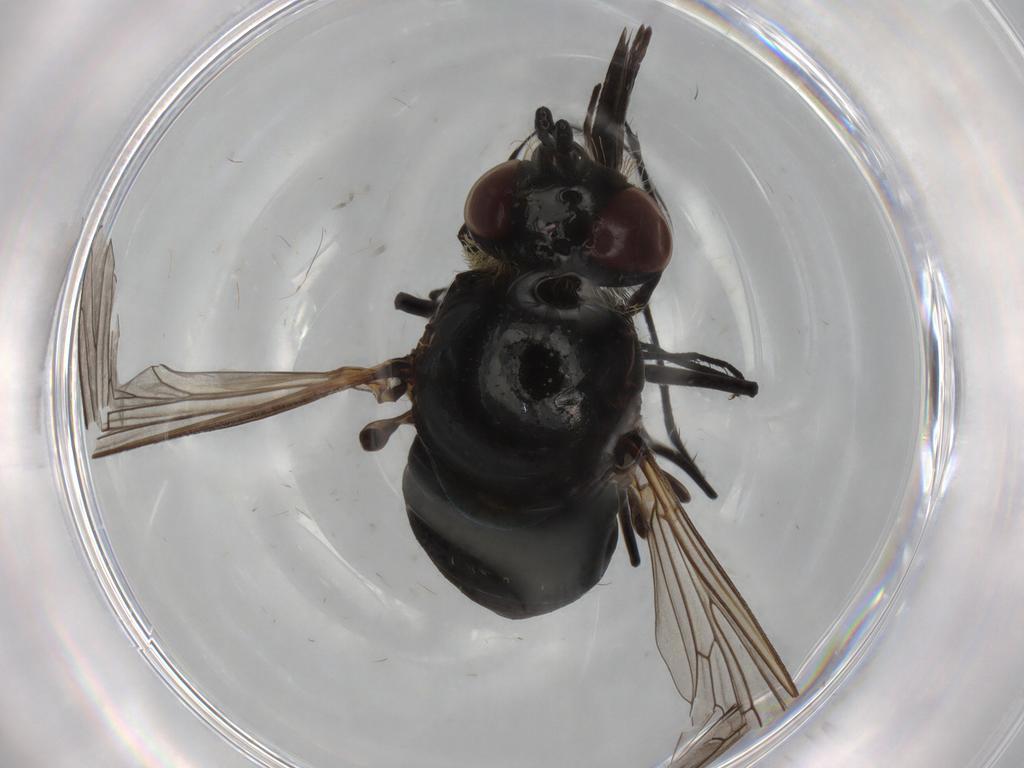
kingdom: Animalia
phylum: Arthropoda
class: Insecta
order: Diptera
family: Bombyliidae
